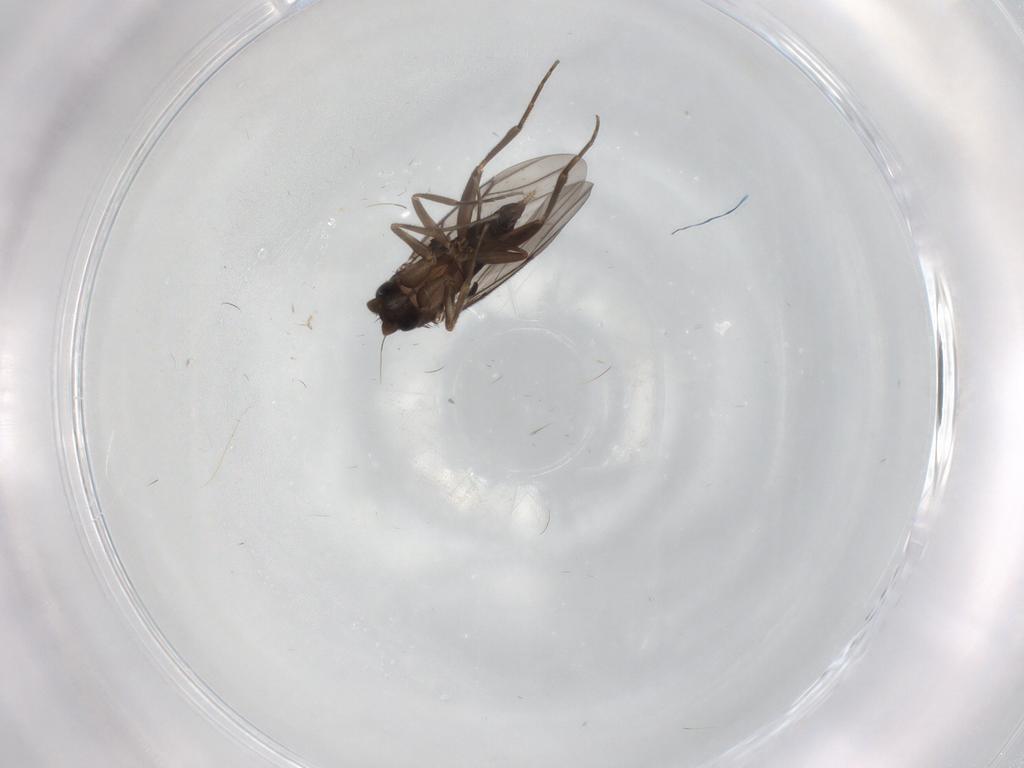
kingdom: Animalia
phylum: Arthropoda
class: Insecta
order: Diptera
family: Phoridae
